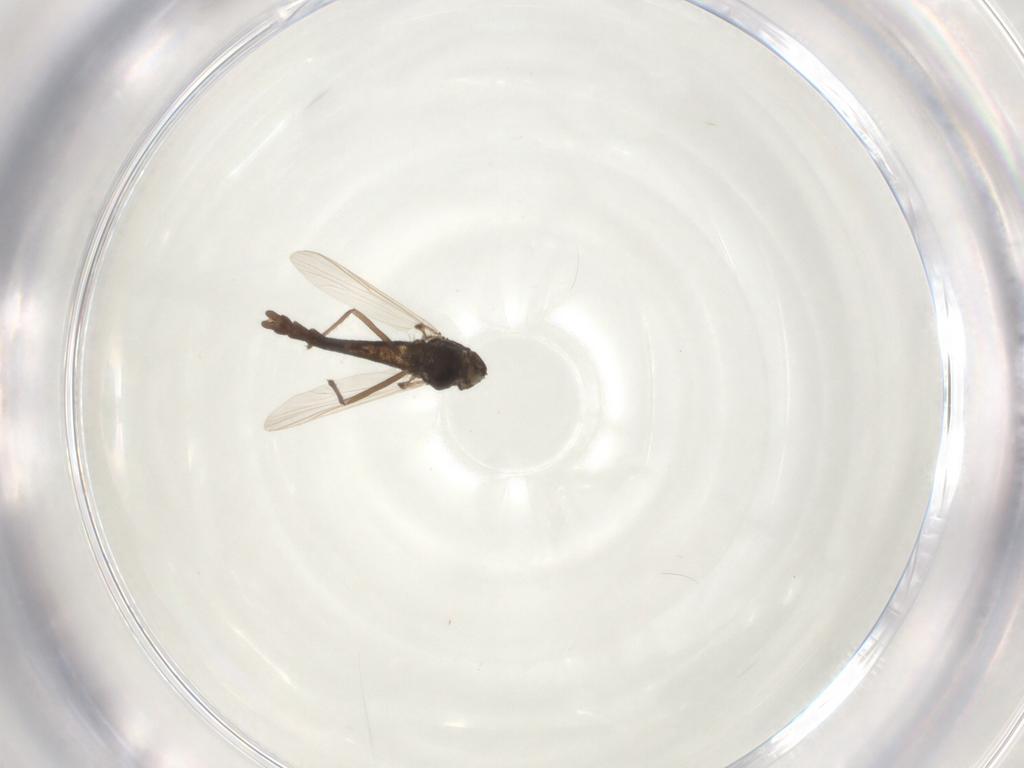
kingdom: Animalia
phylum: Arthropoda
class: Insecta
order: Diptera
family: Chironomidae
